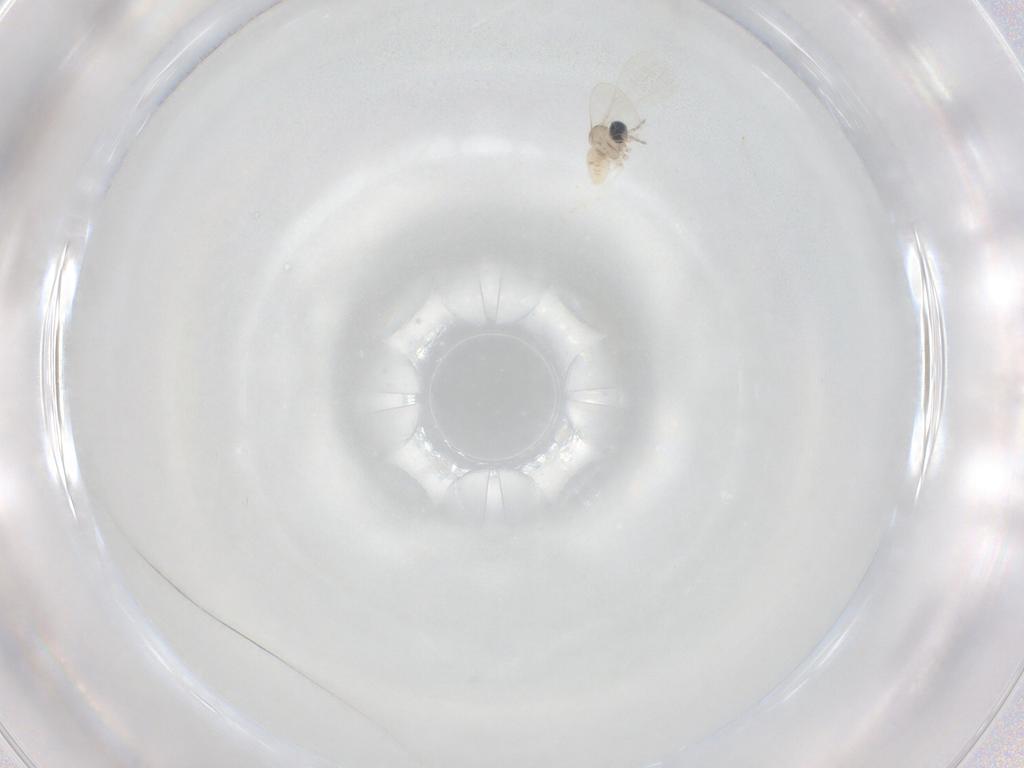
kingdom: Animalia
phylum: Arthropoda
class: Insecta
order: Diptera
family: Cecidomyiidae
